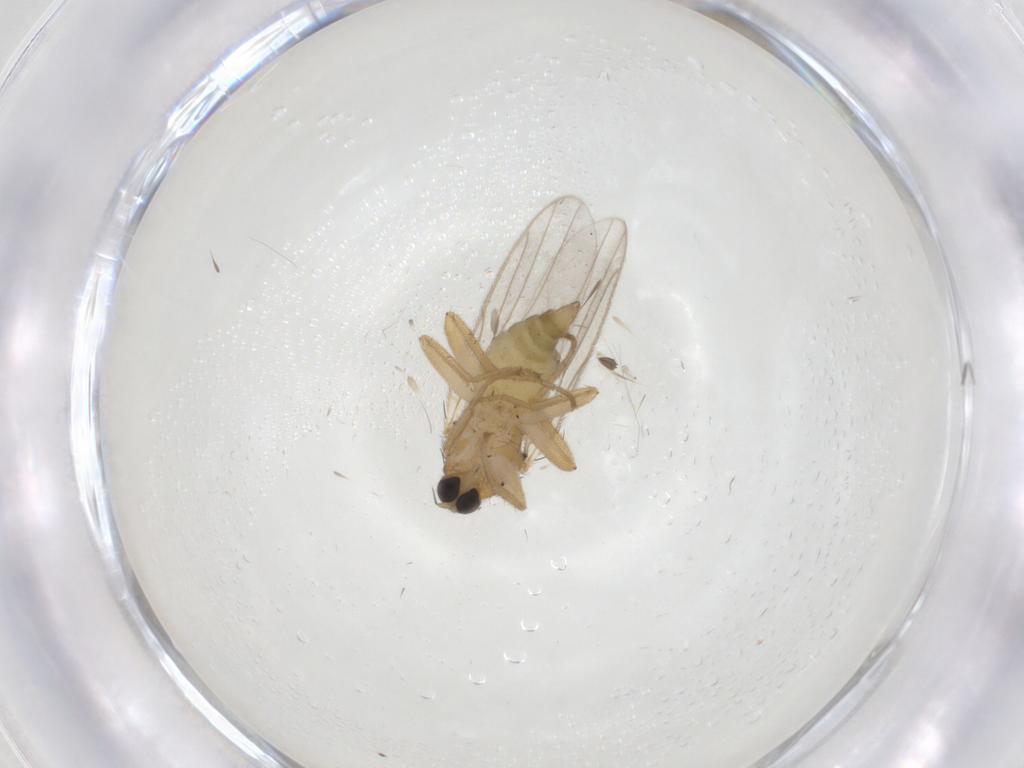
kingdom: Animalia
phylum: Arthropoda
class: Insecta
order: Diptera
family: Hybotidae
